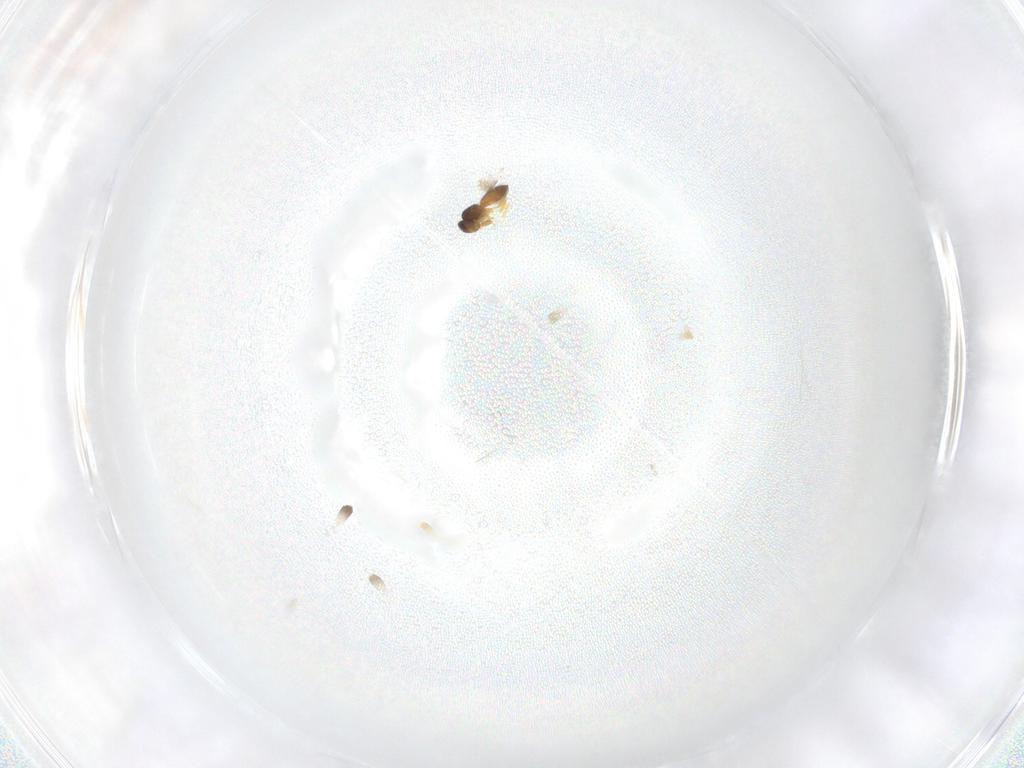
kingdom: Animalia
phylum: Arthropoda
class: Insecta
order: Hymenoptera
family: Platygastridae
